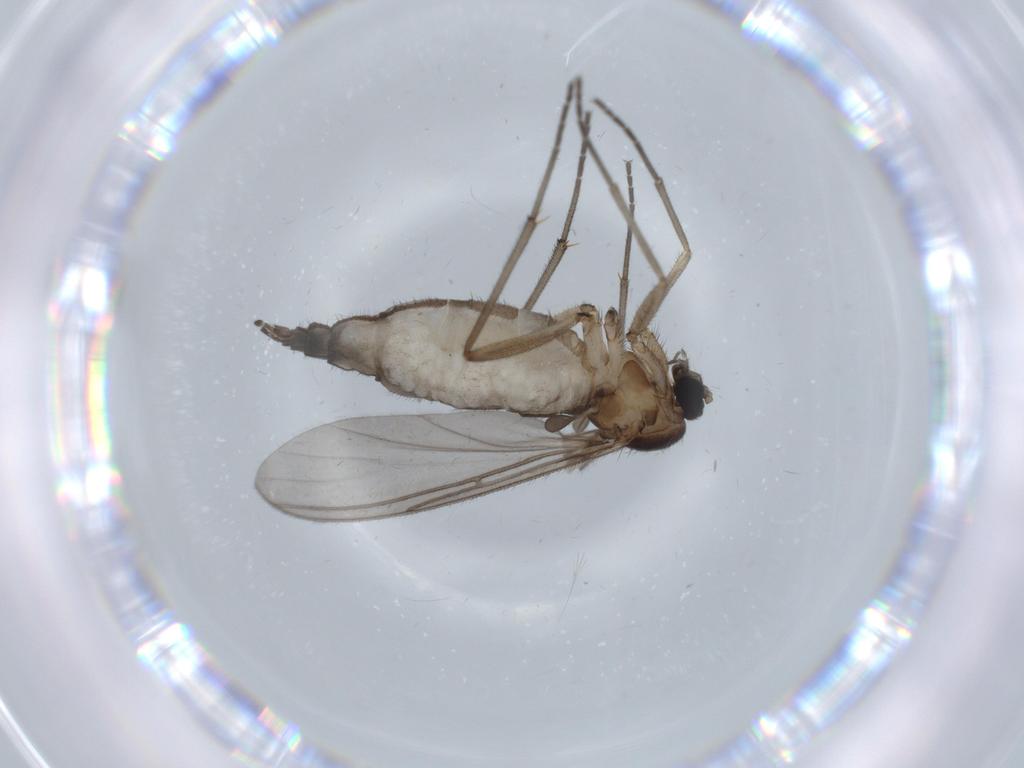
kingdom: Animalia
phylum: Arthropoda
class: Insecta
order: Diptera
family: Sciaridae
